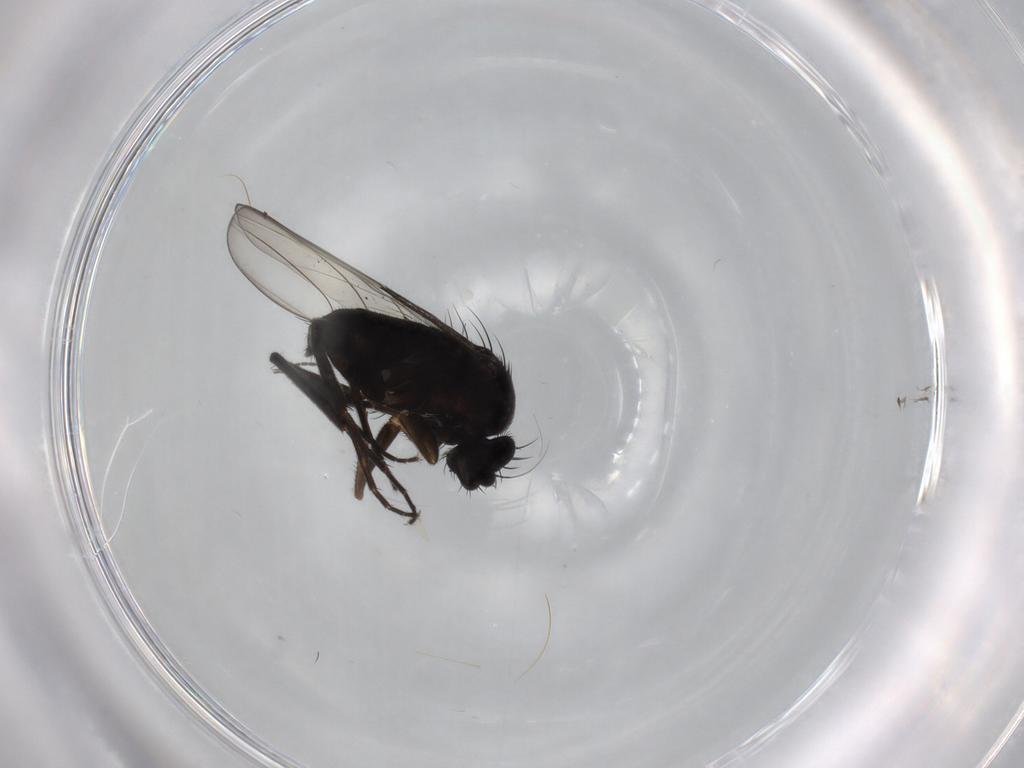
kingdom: Animalia
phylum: Arthropoda
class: Insecta
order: Diptera
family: Phoridae
